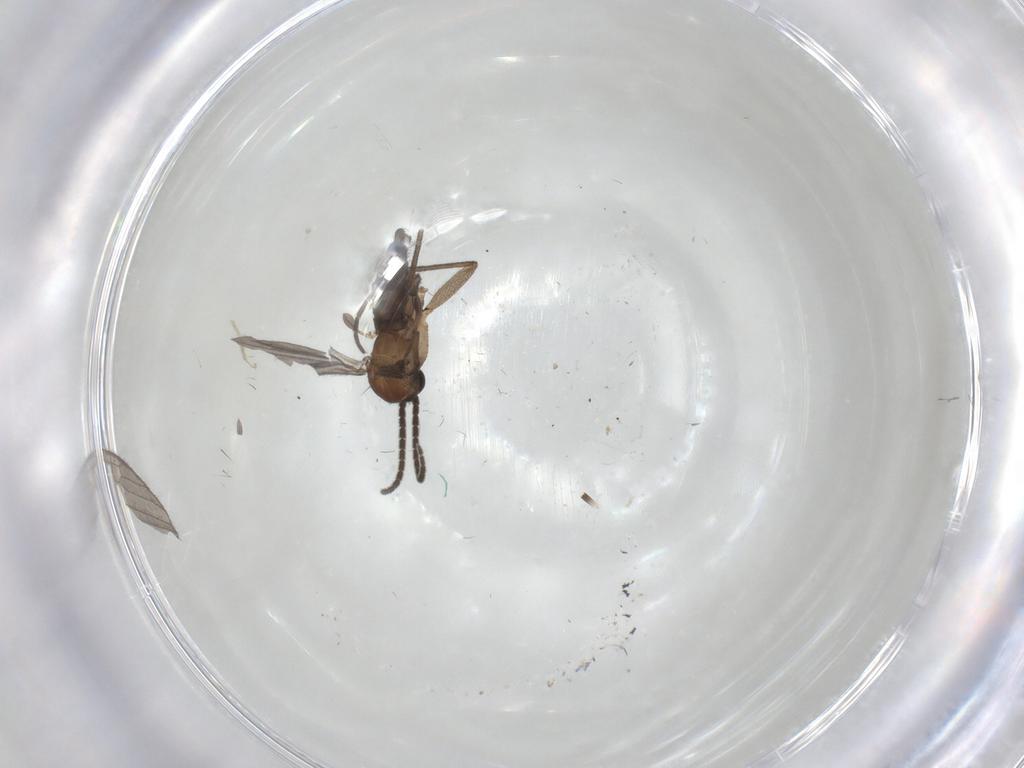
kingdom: Animalia
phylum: Arthropoda
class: Insecta
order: Diptera
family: Sciaridae
